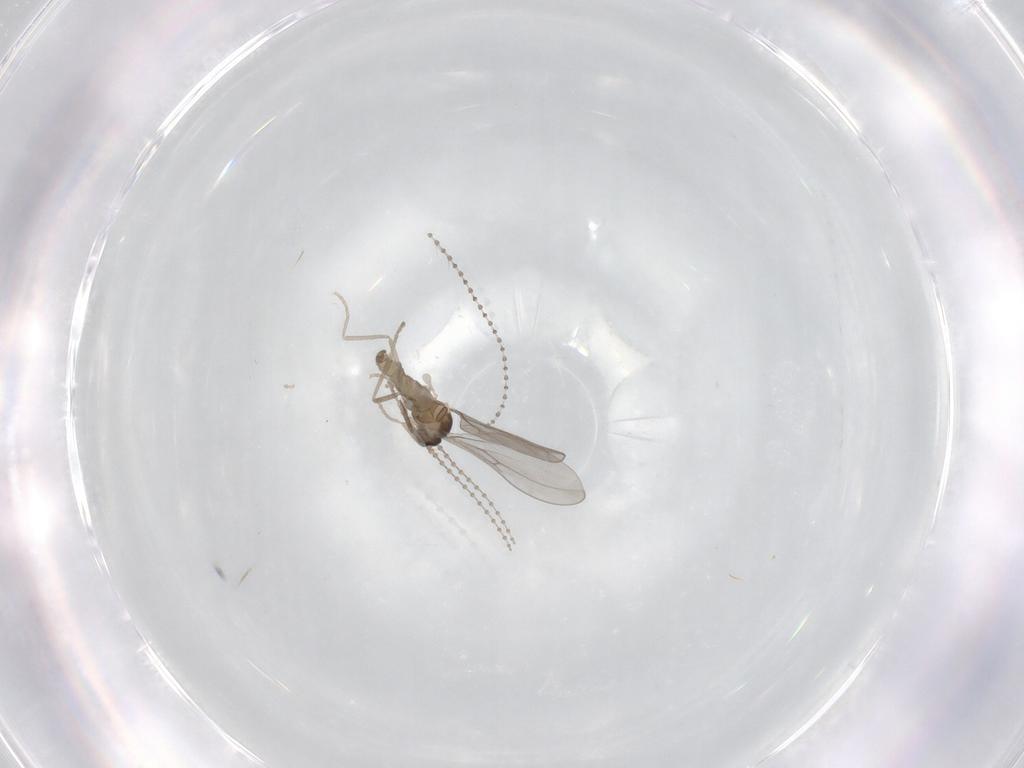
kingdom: Animalia
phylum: Arthropoda
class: Insecta
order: Diptera
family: Cecidomyiidae
